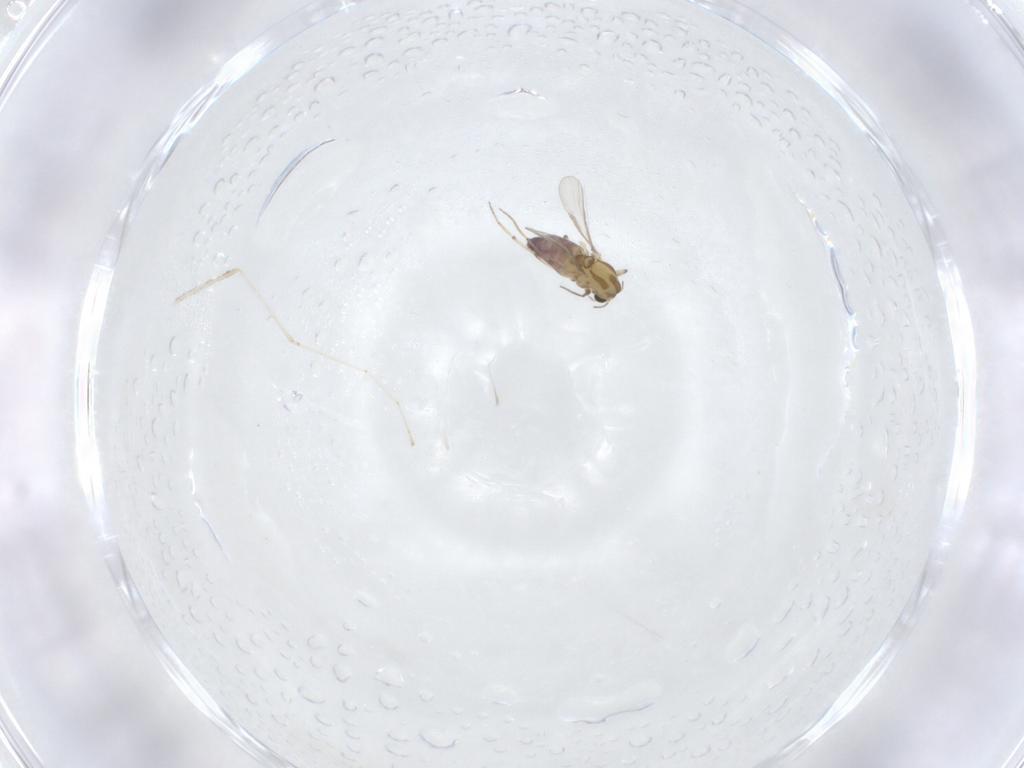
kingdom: Animalia
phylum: Arthropoda
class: Insecta
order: Diptera
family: Chironomidae
